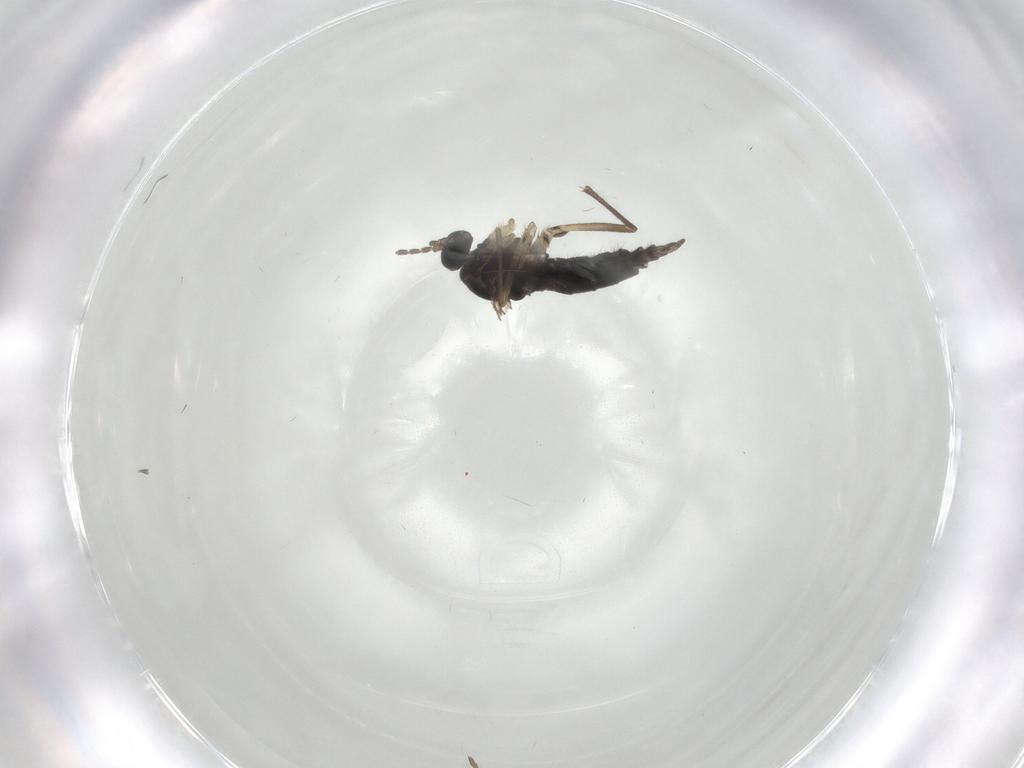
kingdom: Animalia
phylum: Arthropoda
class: Insecta
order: Diptera
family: Sciaridae
